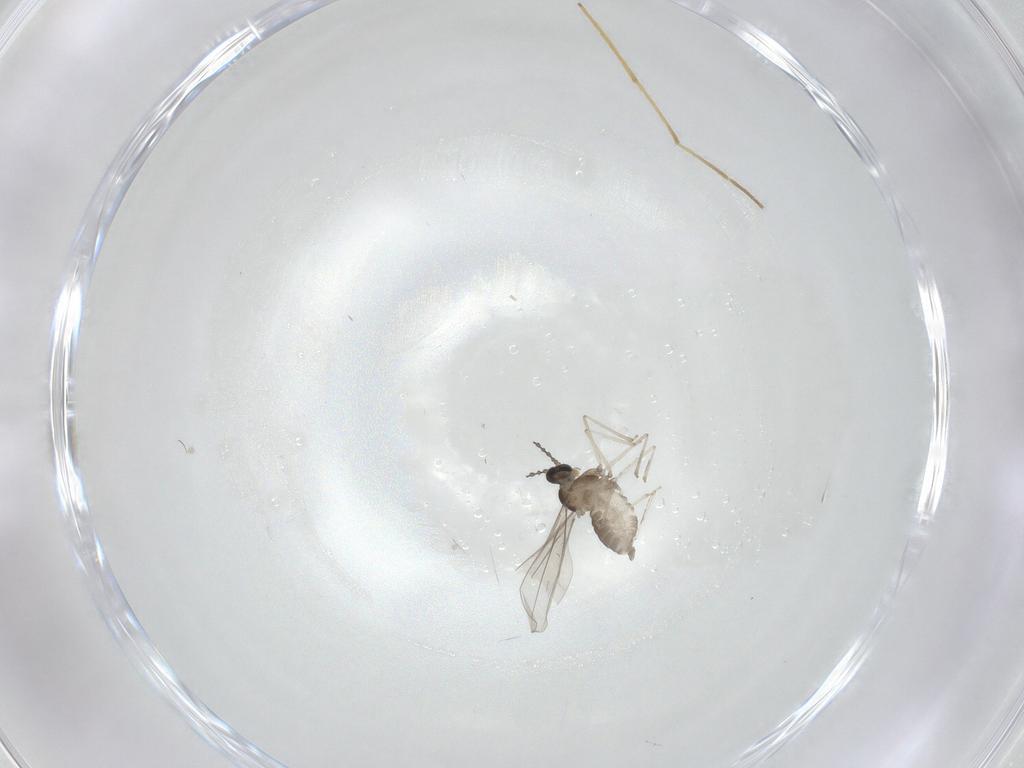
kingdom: Animalia
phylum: Arthropoda
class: Insecta
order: Diptera
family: Cecidomyiidae
